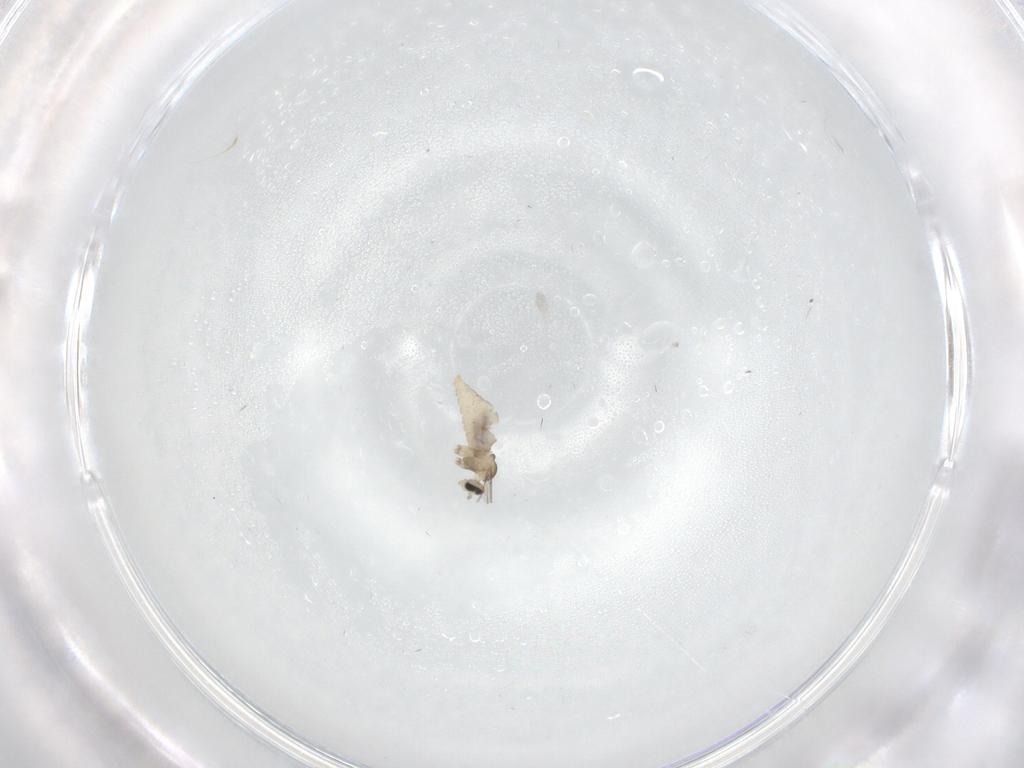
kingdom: Animalia
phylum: Arthropoda
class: Insecta
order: Diptera
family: Cecidomyiidae
